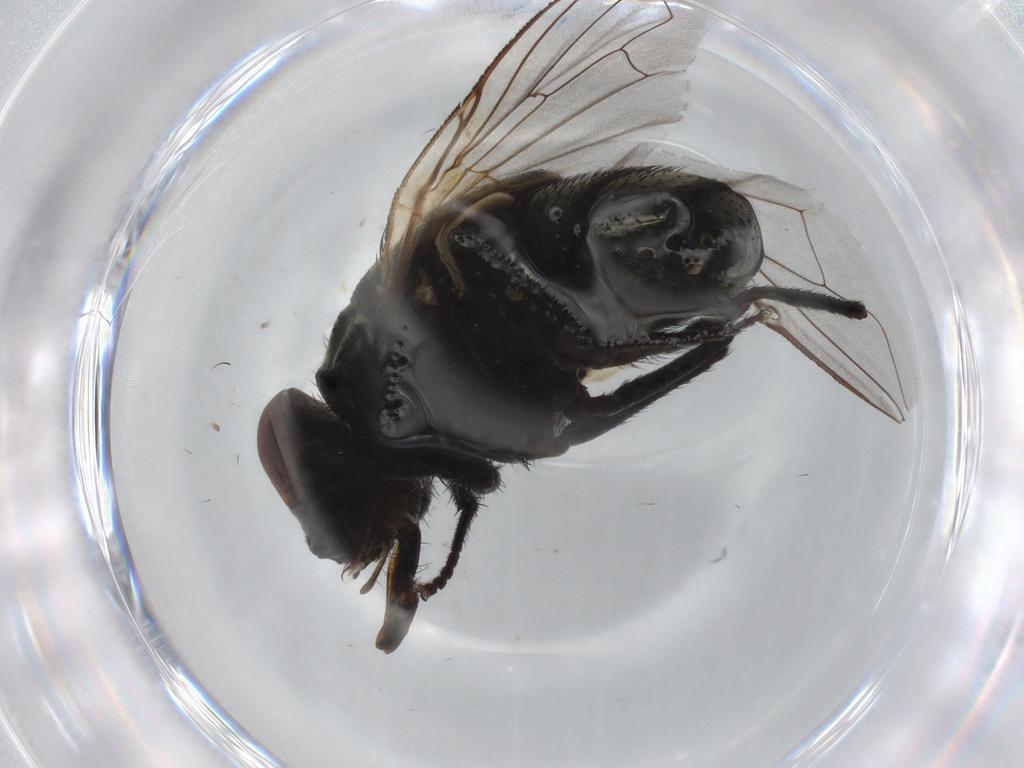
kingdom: Animalia
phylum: Arthropoda
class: Insecta
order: Diptera
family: Muscidae
